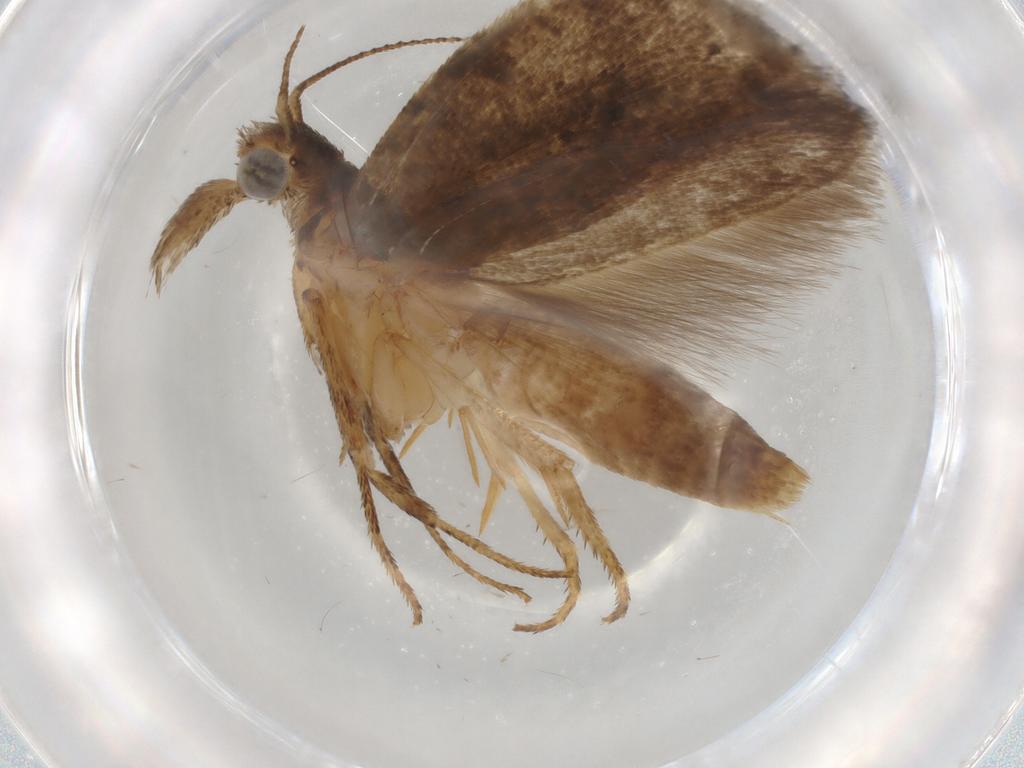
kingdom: Animalia
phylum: Arthropoda
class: Insecta
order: Lepidoptera
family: Gelechiidae
